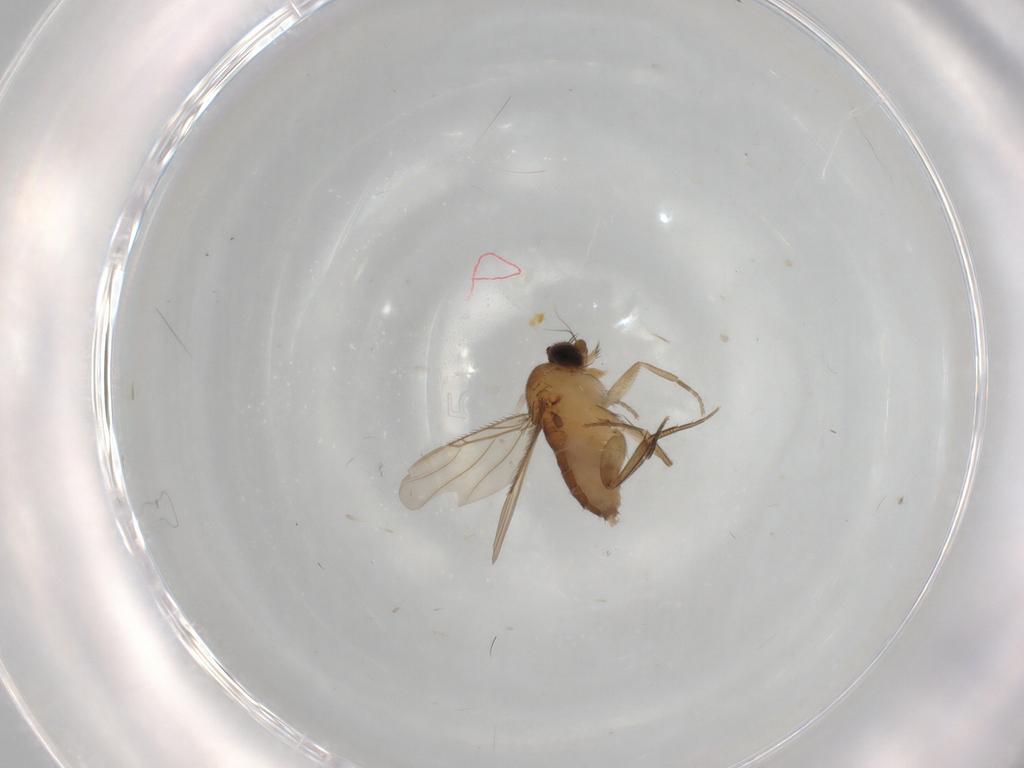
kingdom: Animalia
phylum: Arthropoda
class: Insecta
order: Diptera
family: Phoridae
